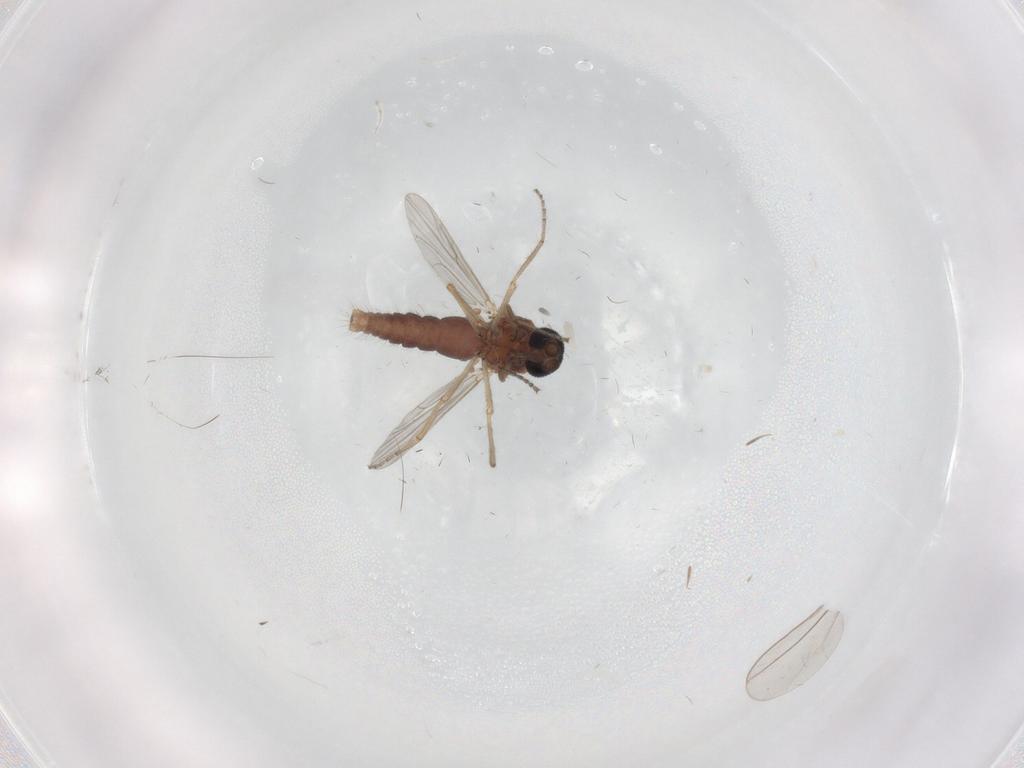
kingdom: Animalia
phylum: Arthropoda
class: Insecta
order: Diptera
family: Ceratopogonidae
